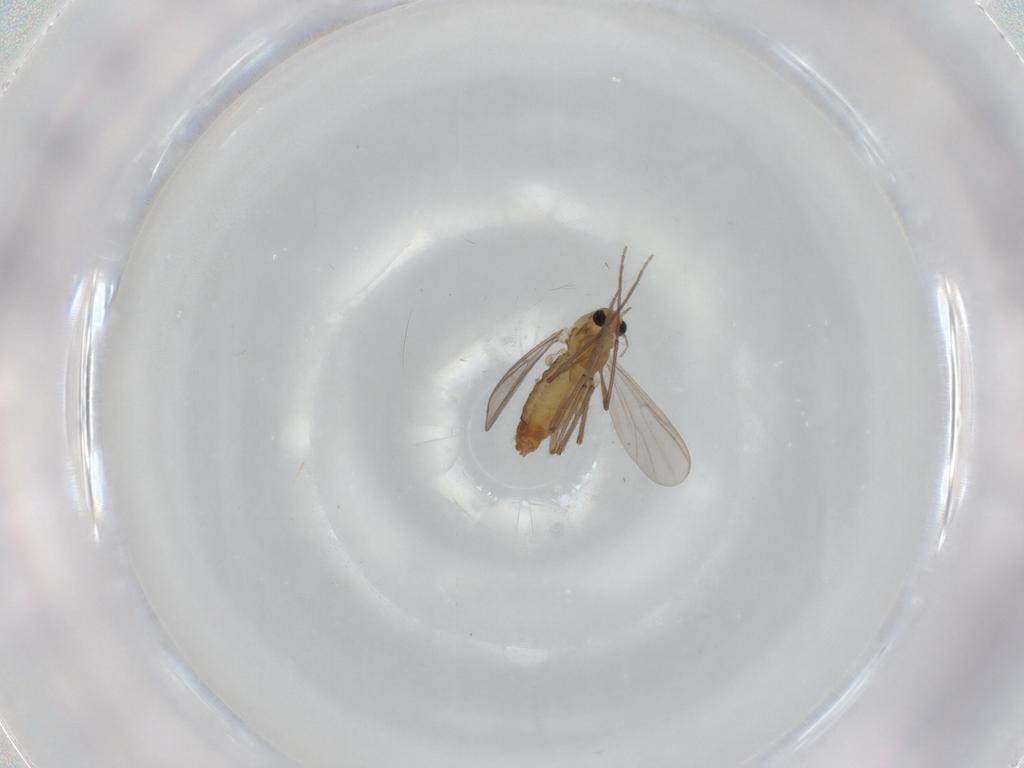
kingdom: Animalia
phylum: Arthropoda
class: Insecta
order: Diptera
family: Chironomidae
